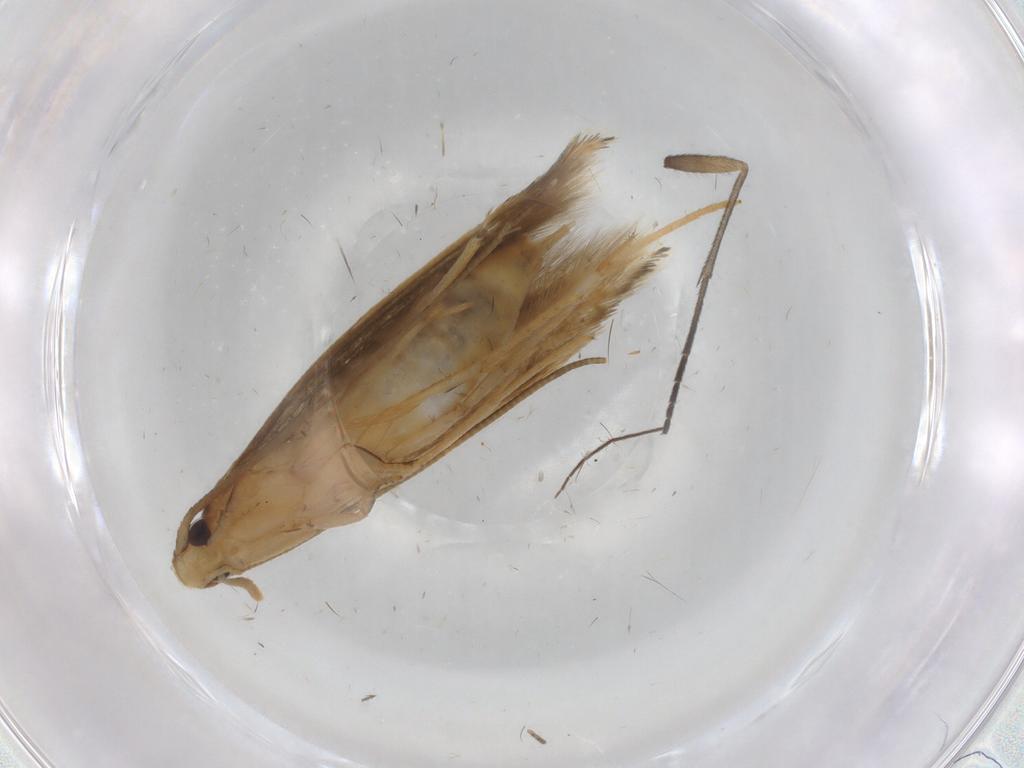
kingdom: Animalia
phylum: Arthropoda
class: Insecta
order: Lepidoptera
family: Tineidae
